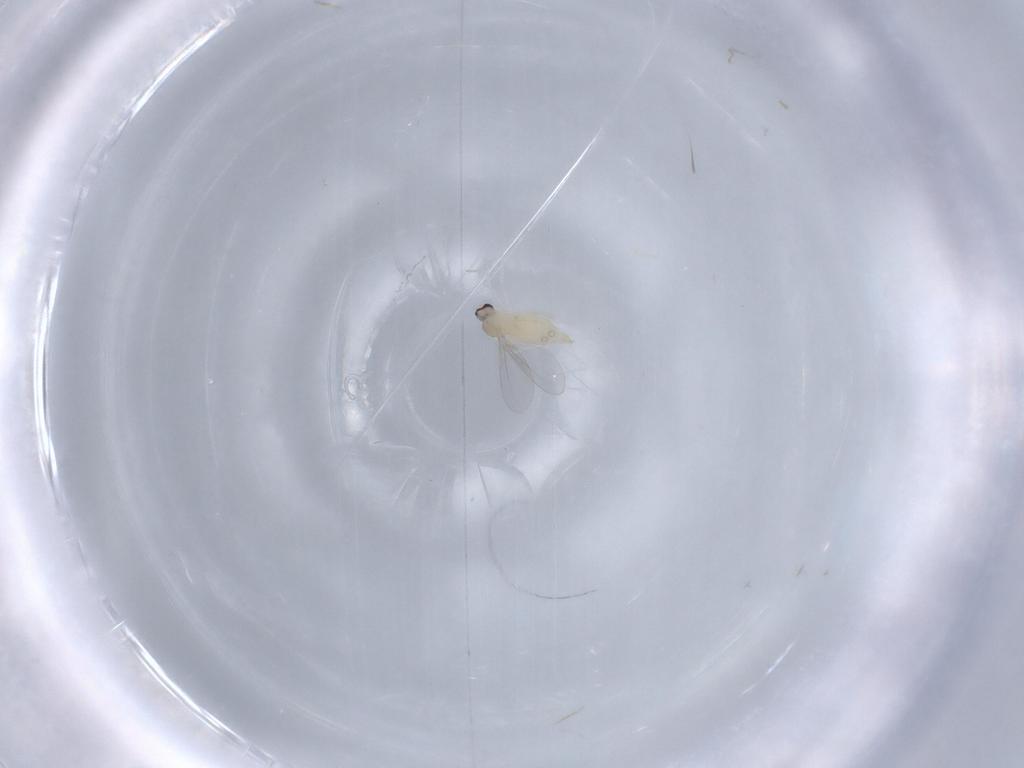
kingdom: Animalia
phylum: Arthropoda
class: Insecta
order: Diptera
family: Cecidomyiidae
